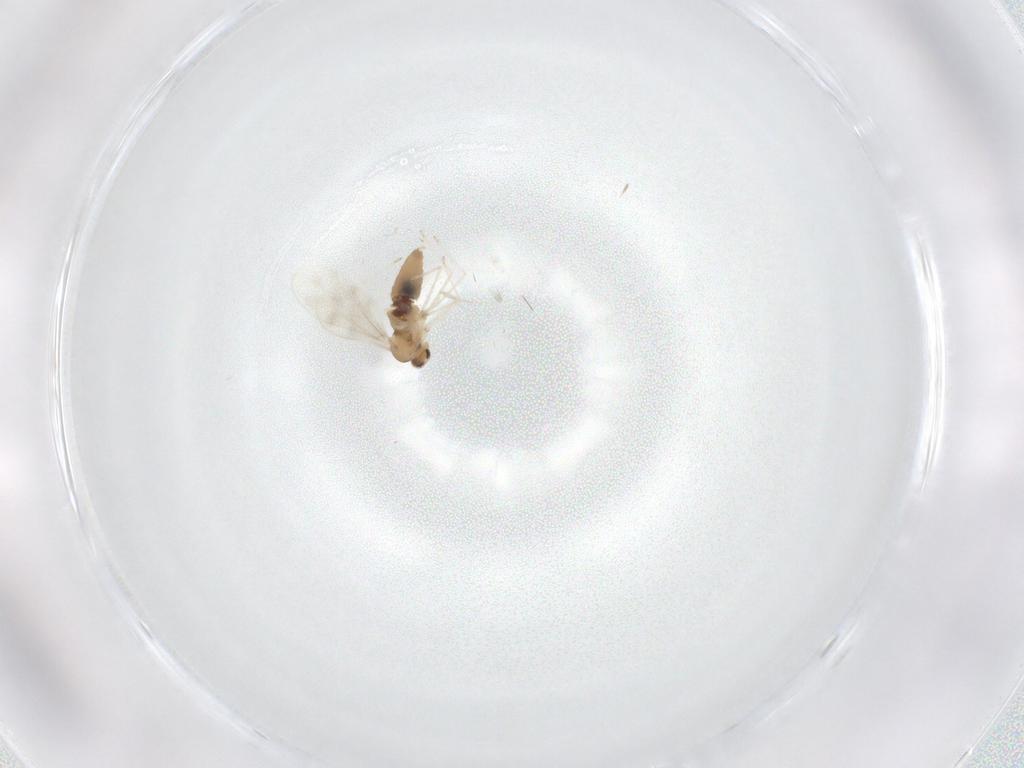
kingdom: Animalia
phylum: Arthropoda
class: Insecta
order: Diptera
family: Cecidomyiidae
